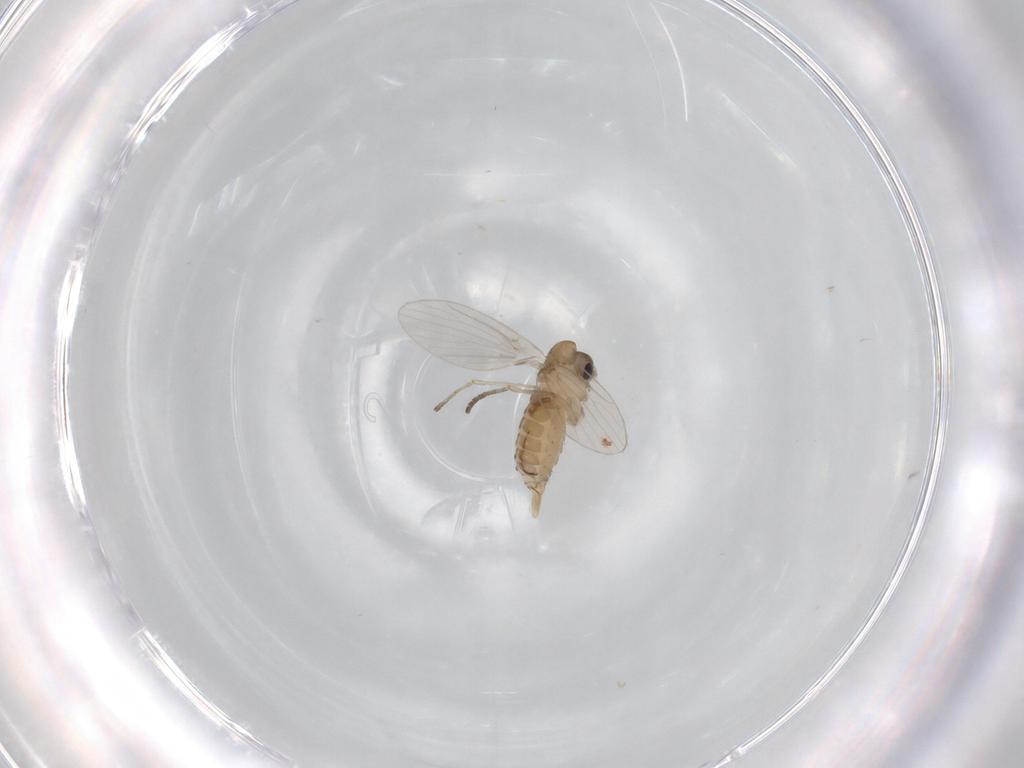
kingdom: Animalia
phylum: Arthropoda
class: Insecta
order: Diptera
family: Psychodidae
